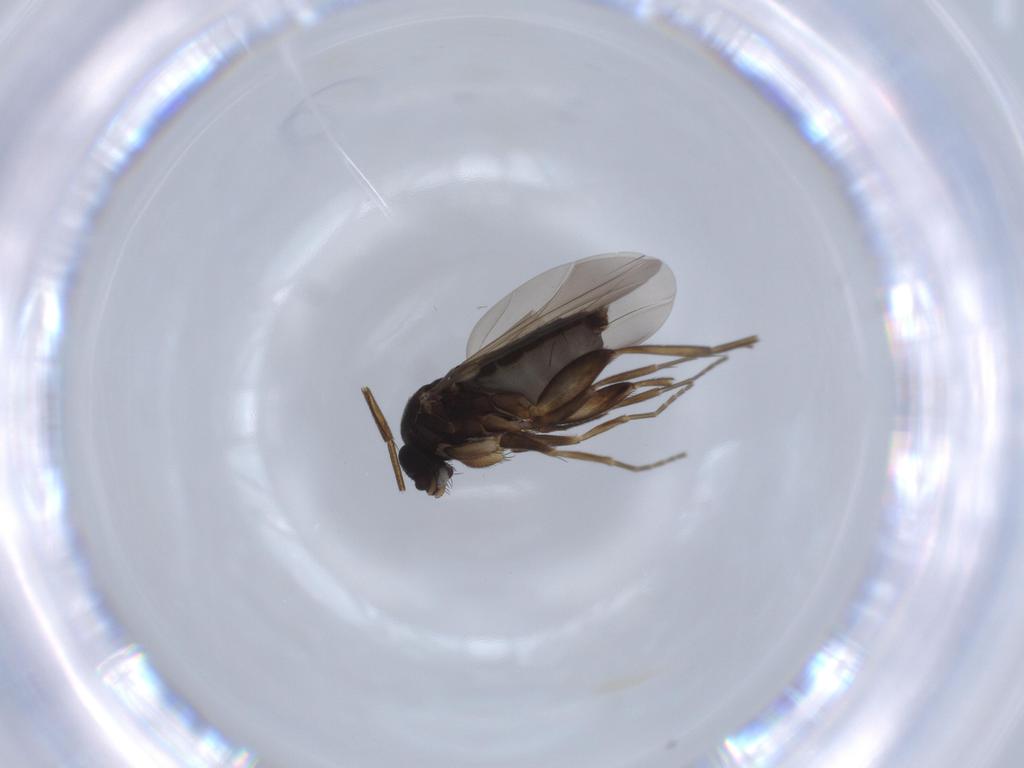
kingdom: Animalia
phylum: Arthropoda
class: Insecta
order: Diptera
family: Phoridae
